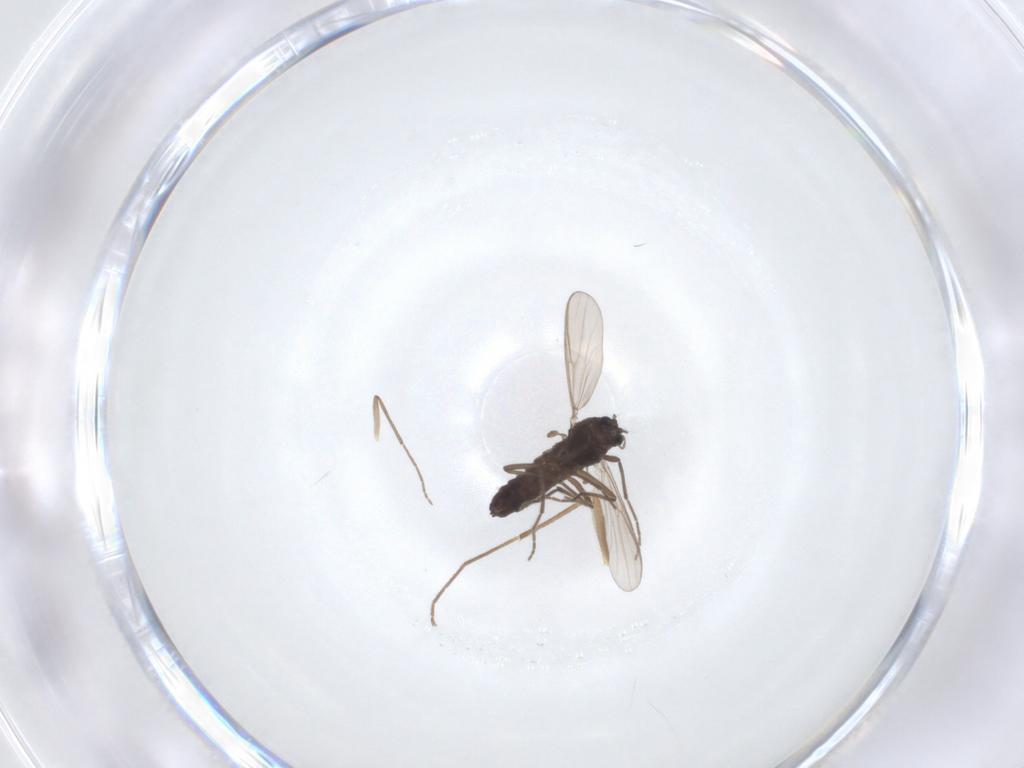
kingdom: Animalia
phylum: Arthropoda
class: Insecta
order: Diptera
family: Chironomidae
